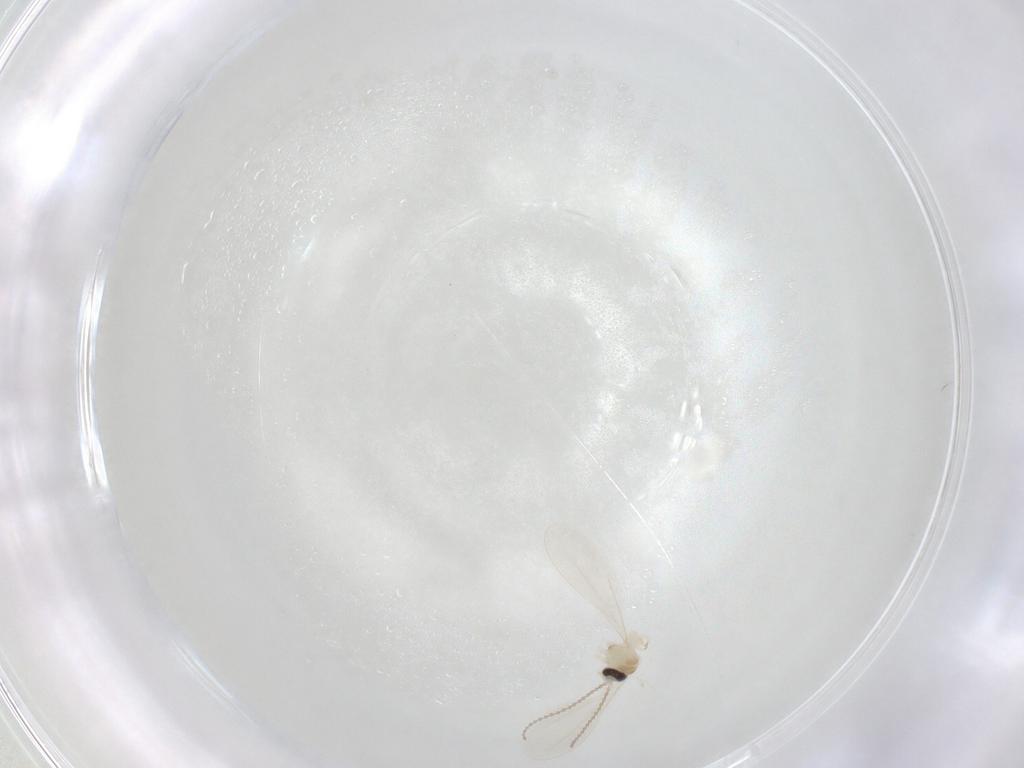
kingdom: Animalia
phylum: Arthropoda
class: Insecta
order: Diptera
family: Cecidomyiidae
